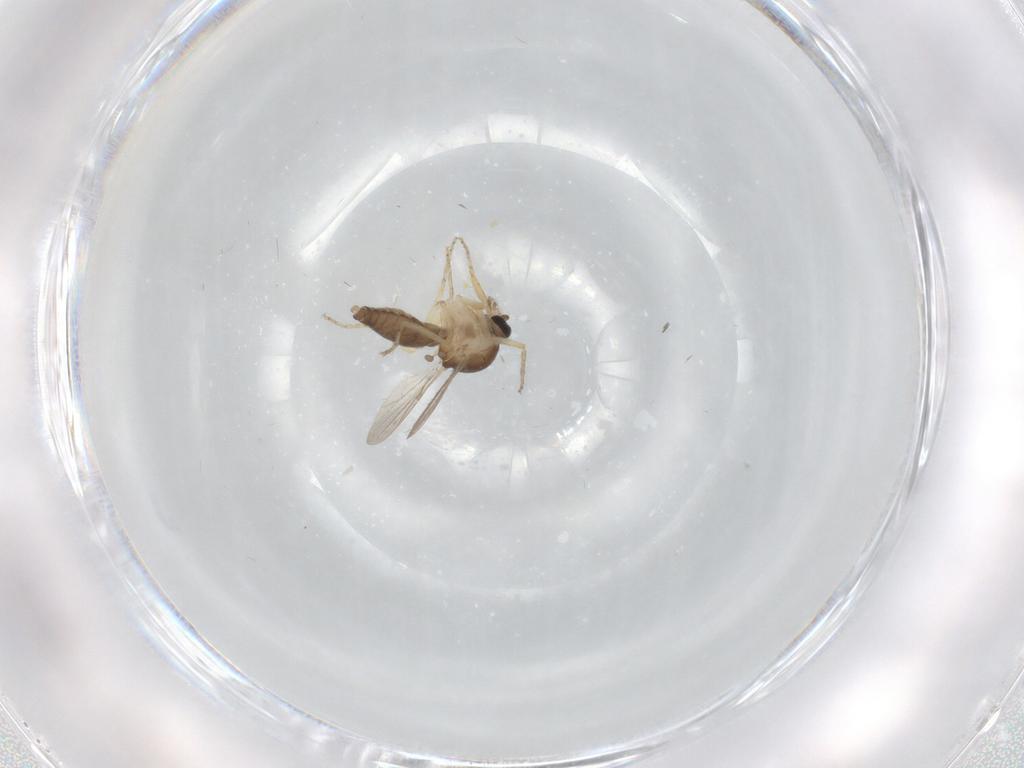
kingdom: Animalia
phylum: Arthropoda
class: Insecta
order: Diptera
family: Ceratopogonidae
